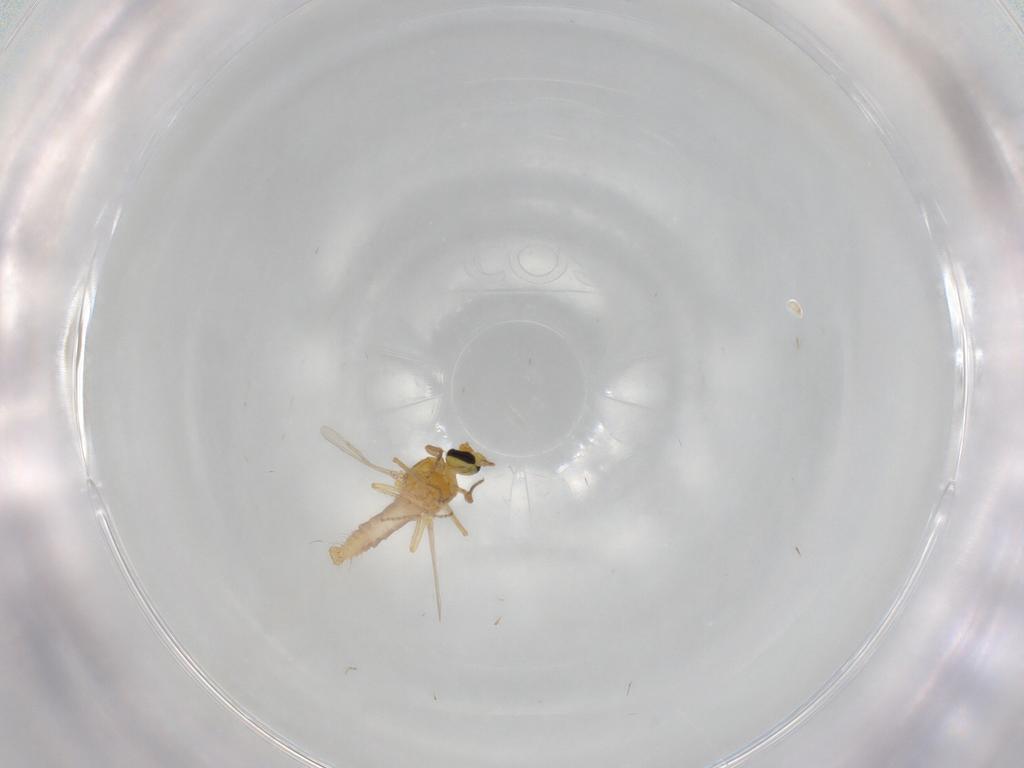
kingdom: Animalia
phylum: Arthropoda
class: Insecta
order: Diptera
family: Ceratopogonidae
